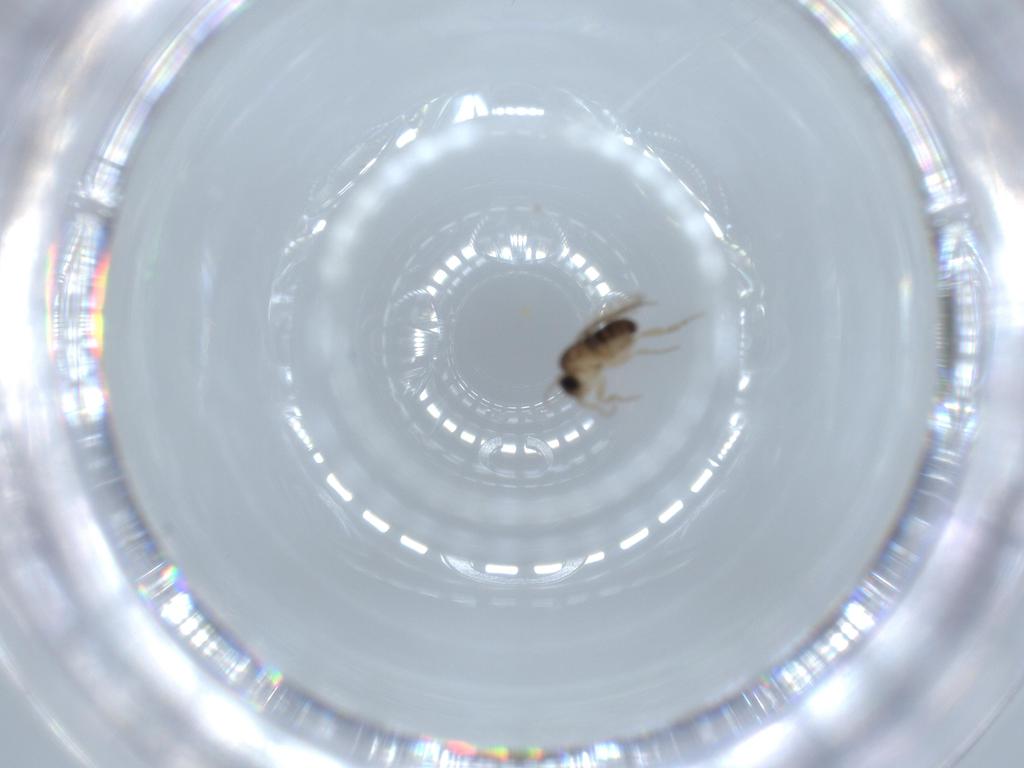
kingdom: Animalia
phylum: Arthropoda
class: Insecta
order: Diptera
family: Phoridae
